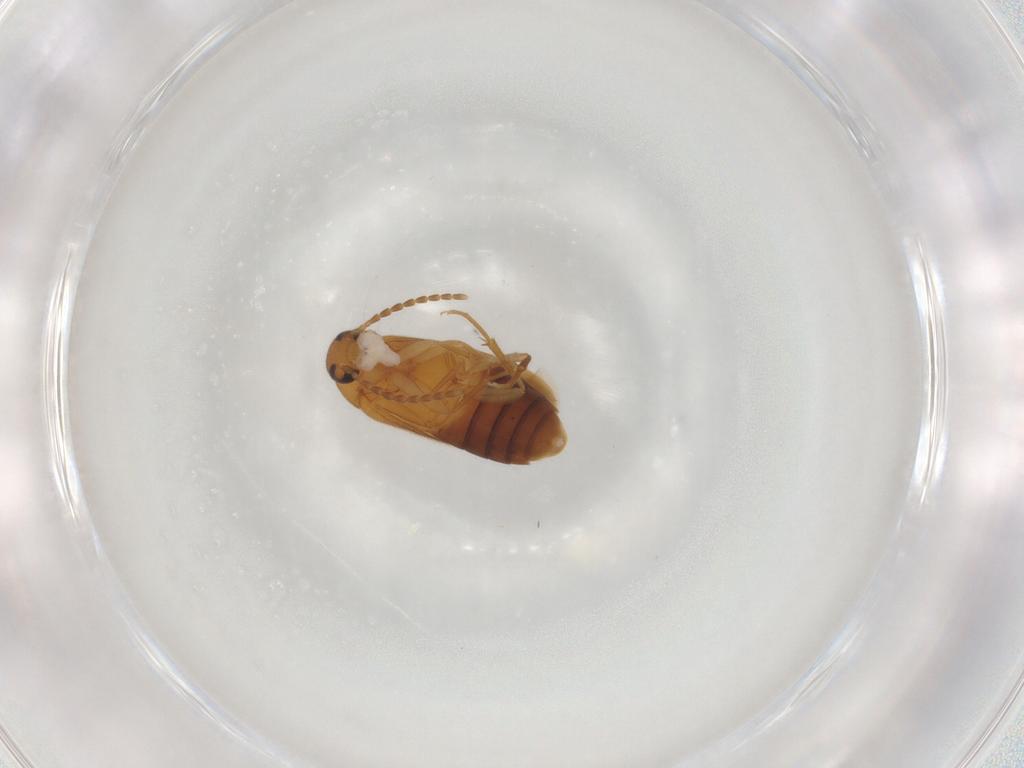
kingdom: Animalia
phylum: Arthropoda
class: Insecta
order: Coleoptera
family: Scraptiidae
